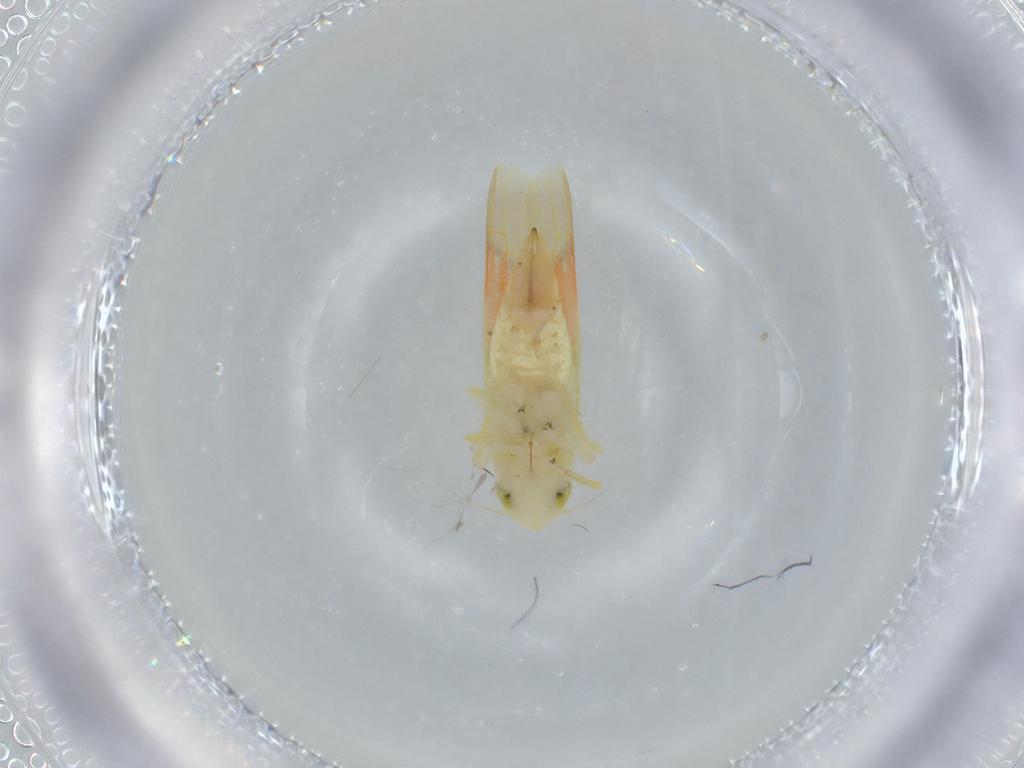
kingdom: Animalia
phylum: Arthropoda
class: Insecta
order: Hemiptera
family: Cicadellidae
